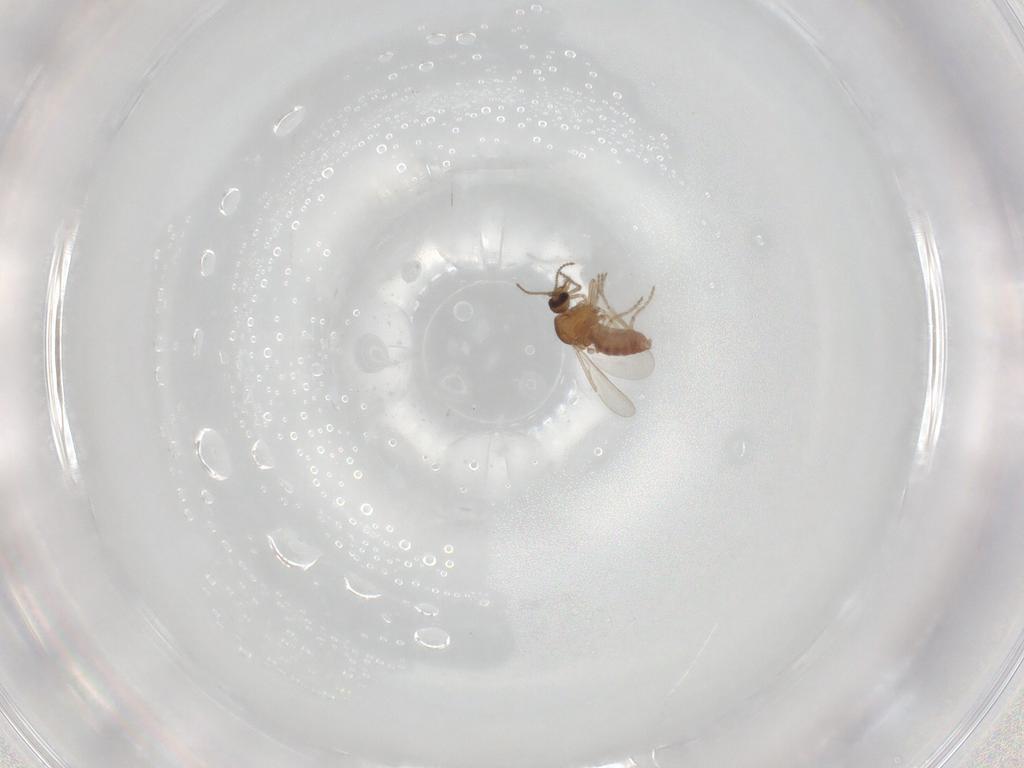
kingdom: Animalia
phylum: Arthropoda
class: Insecta
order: Diptera
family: Ceratopogonidae
